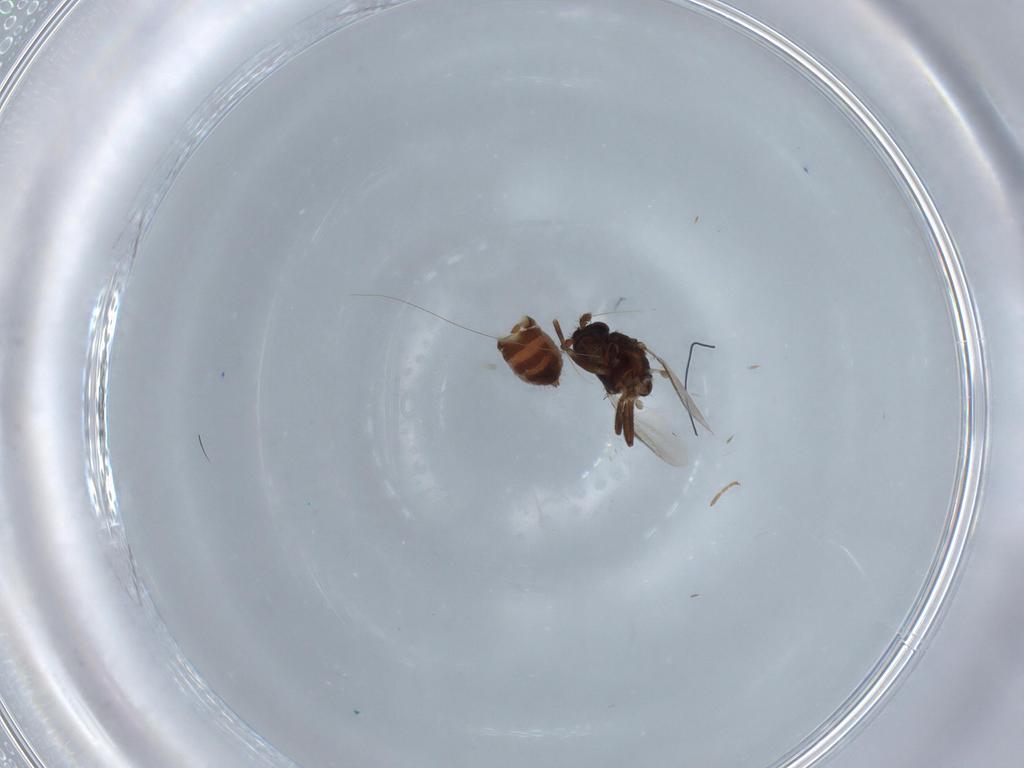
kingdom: Animalia
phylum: Arthropoda
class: Insecta
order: Diptera
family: Sphaeroceridae
